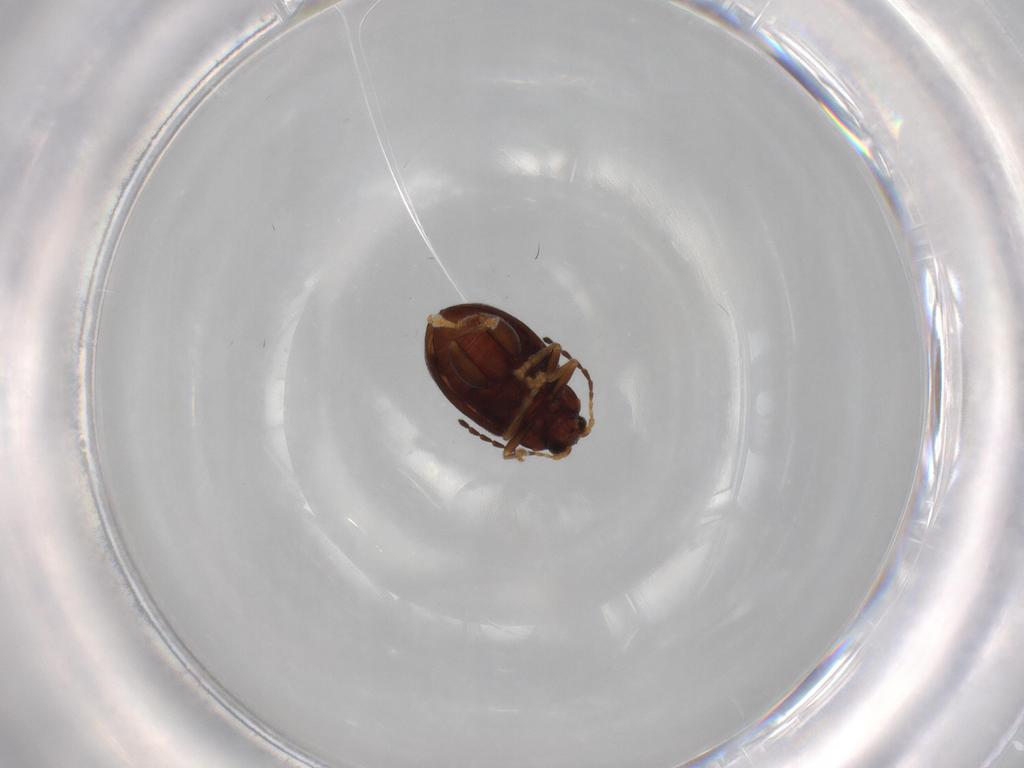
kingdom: Animalia
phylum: Arthropoda
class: Insecta
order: Coleoptera
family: Chrysomelidae
